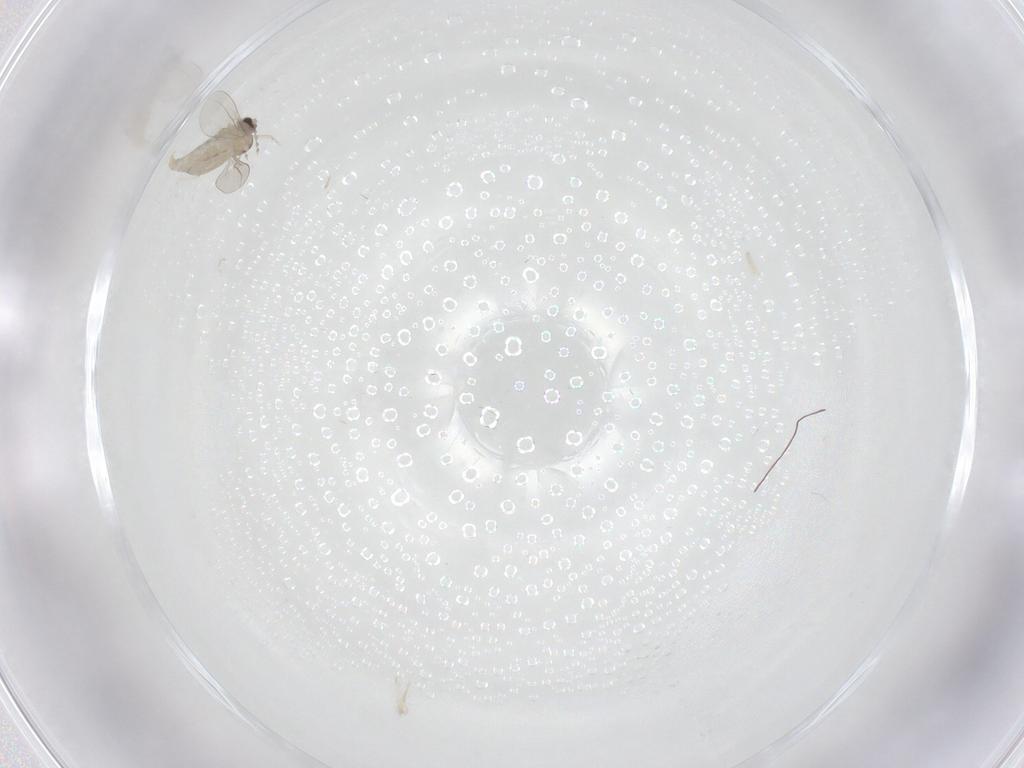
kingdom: Animalia
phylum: Arthropoda
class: Insecta
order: Diptera
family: Cecidomyiidae
